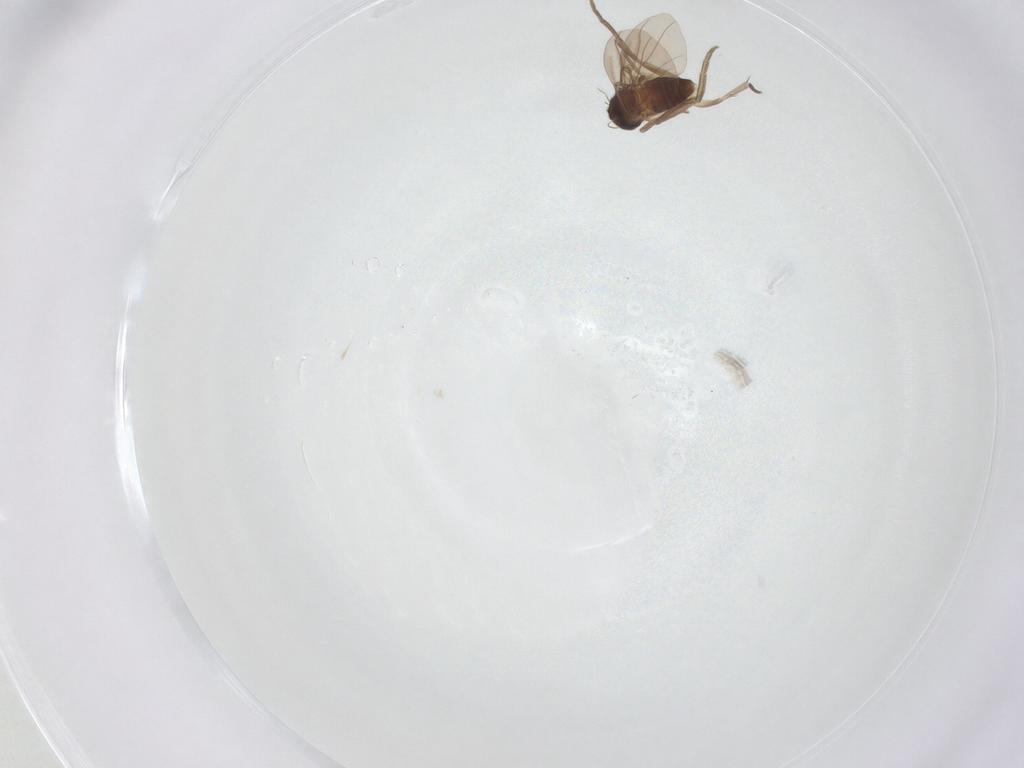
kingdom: Animalia
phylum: Arthropoda
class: Insecta
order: Diptera
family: Phoridae
